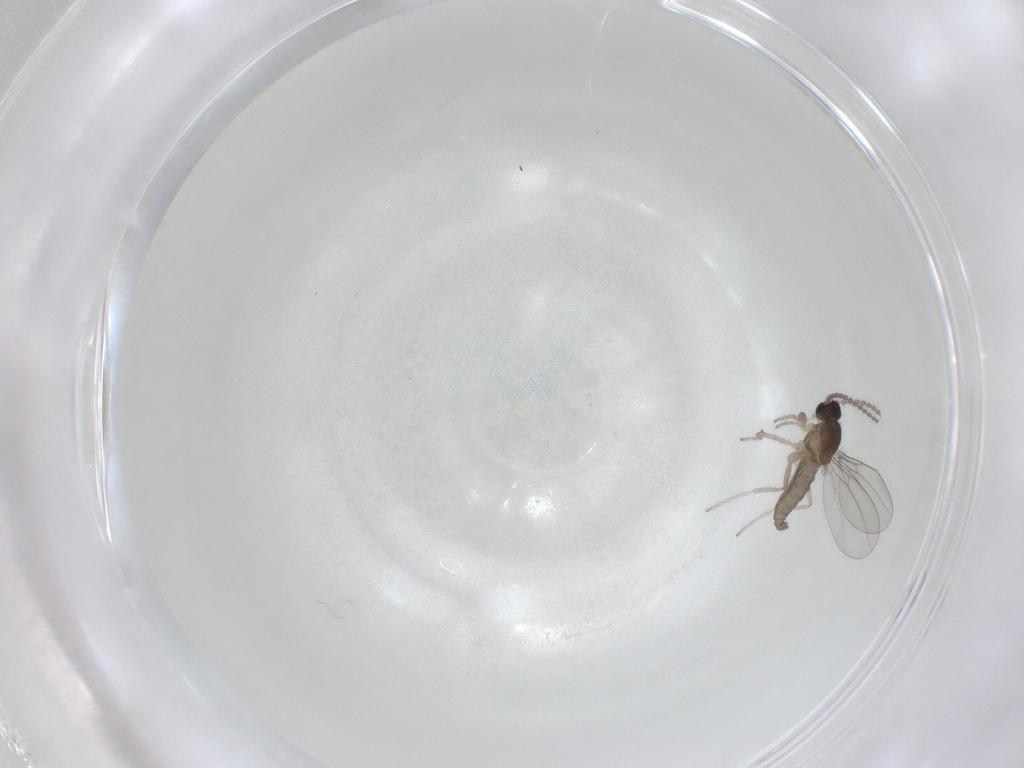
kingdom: Animalia
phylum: Arthropoda
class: Insecta
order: Diptera
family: Cecidomyiidae
